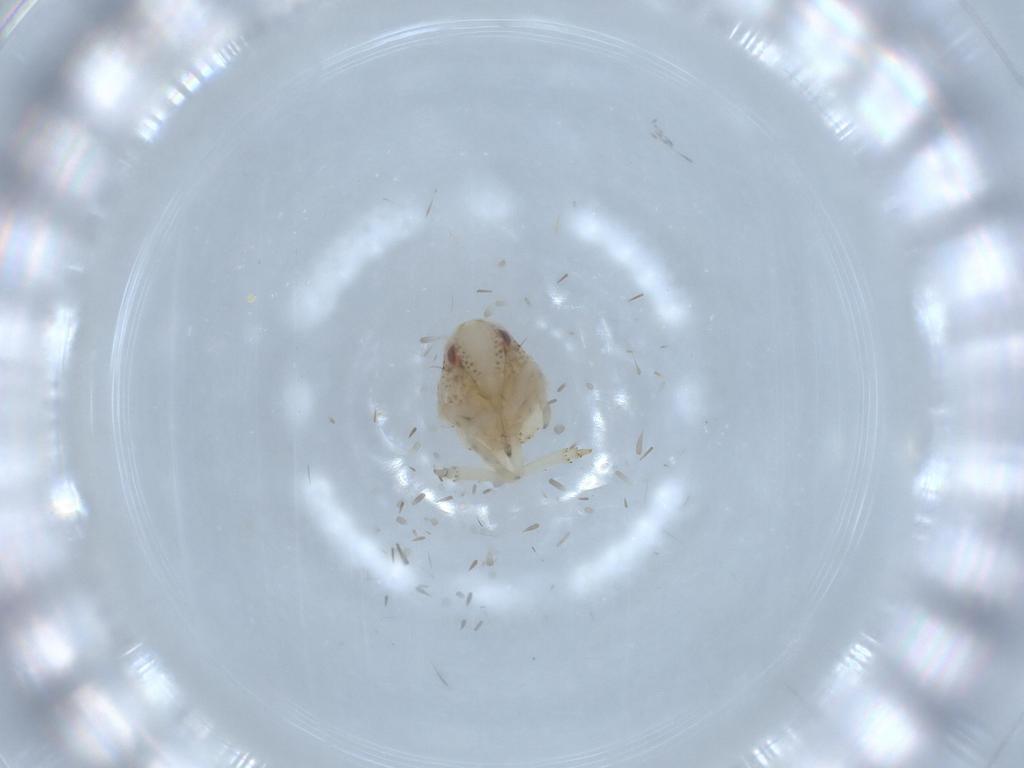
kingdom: Animalia
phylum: Arthropoda
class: Insecta
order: Hemiptera
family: Acanaloniidae
